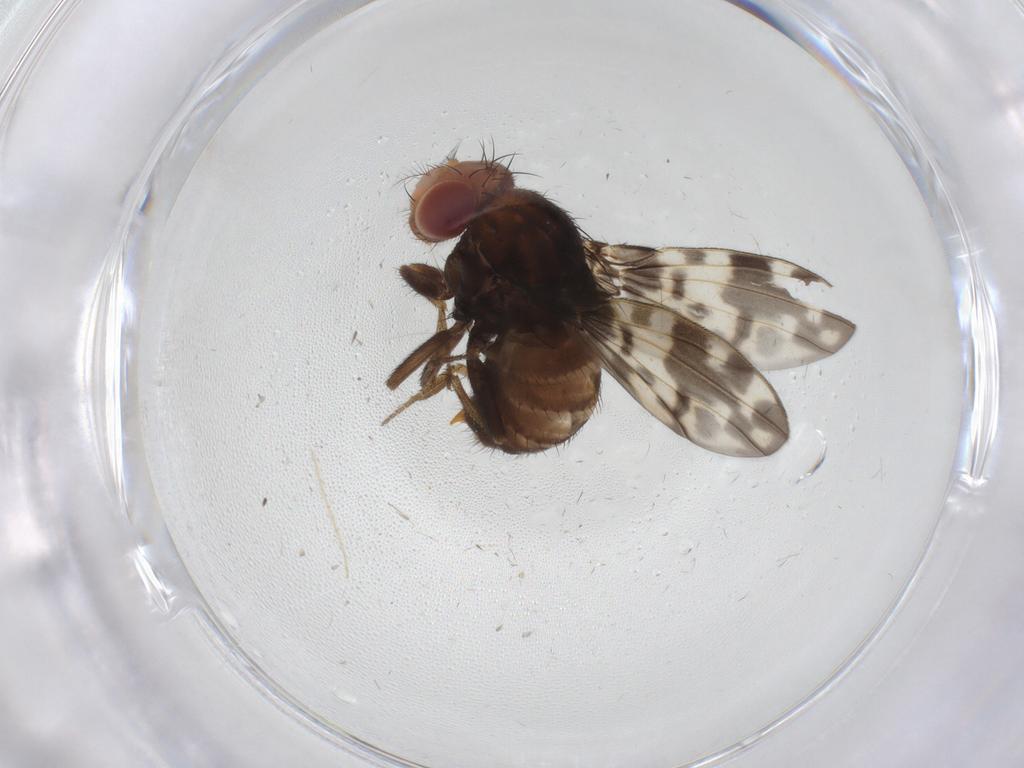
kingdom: Animalia
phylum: Arthropoda
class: Insecta
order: Diptera
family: Drosophilidae
